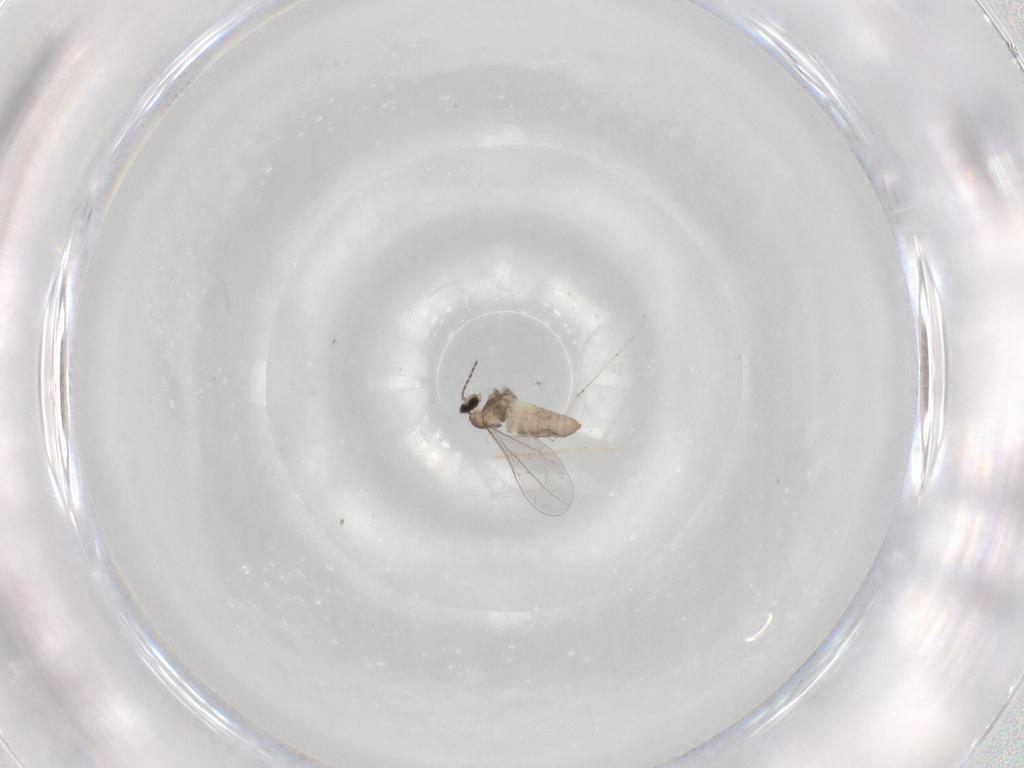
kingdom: Animalia
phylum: Arthropoda
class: Insecta
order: Diptera
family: Cecidomyiidae
